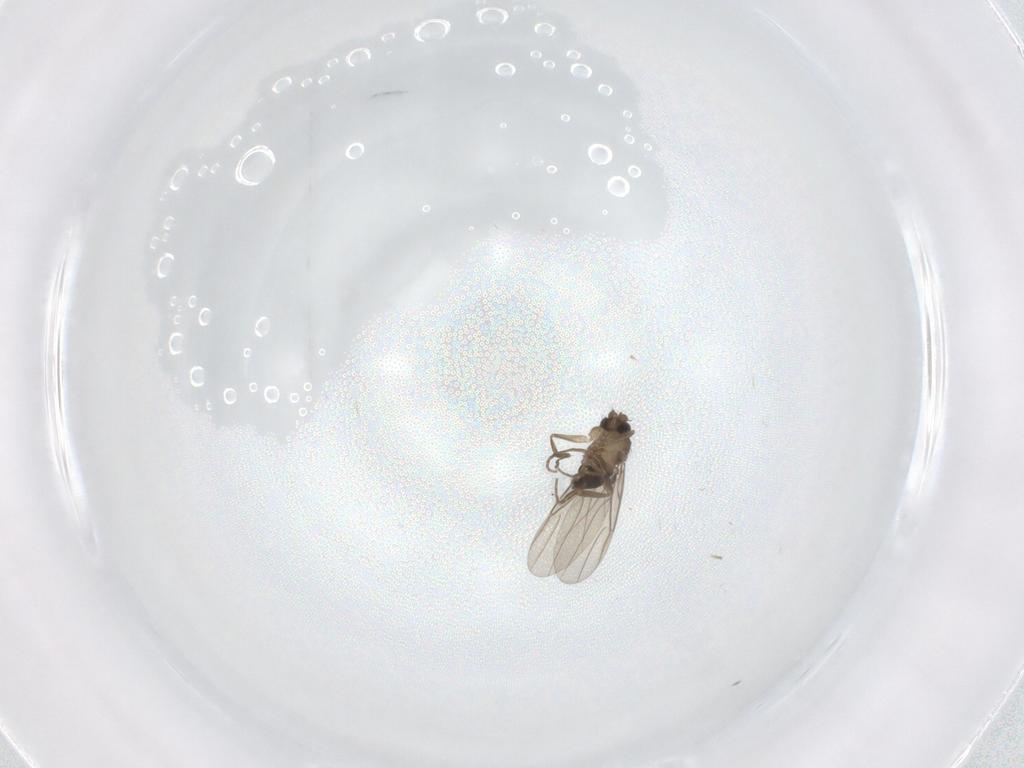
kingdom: Animalia
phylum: Arthropoda
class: Insecta
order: Diptera
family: Phoridae
